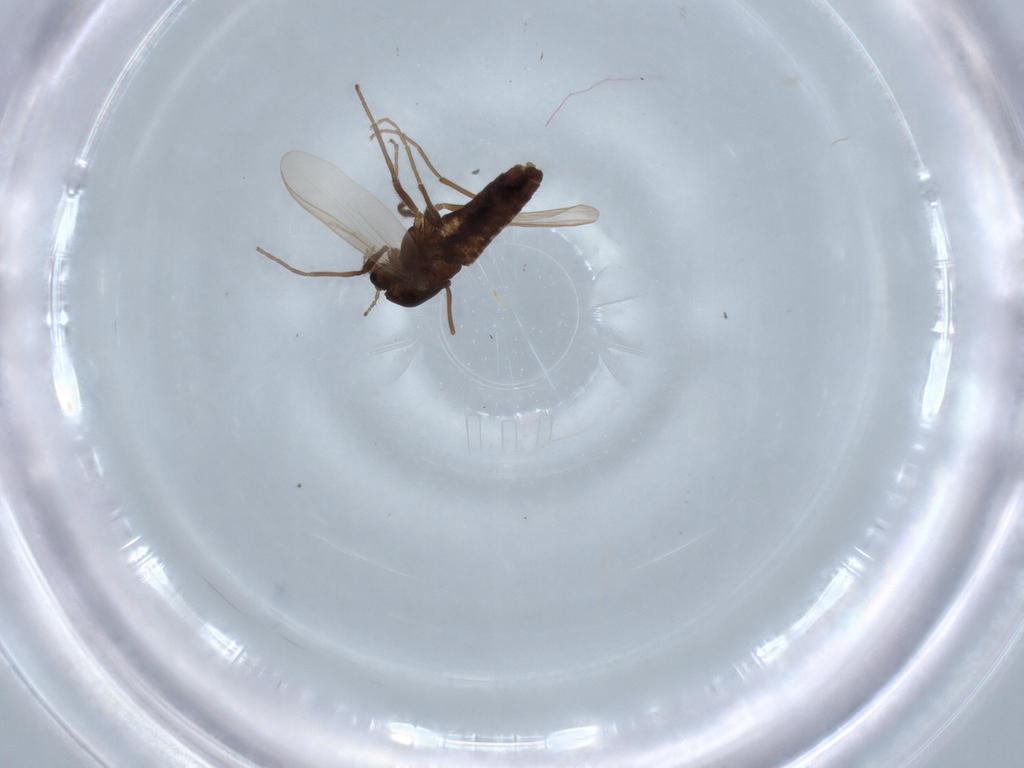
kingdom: Animalia
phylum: Arthropoda
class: Insecta
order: Diptera
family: Chironomidae
